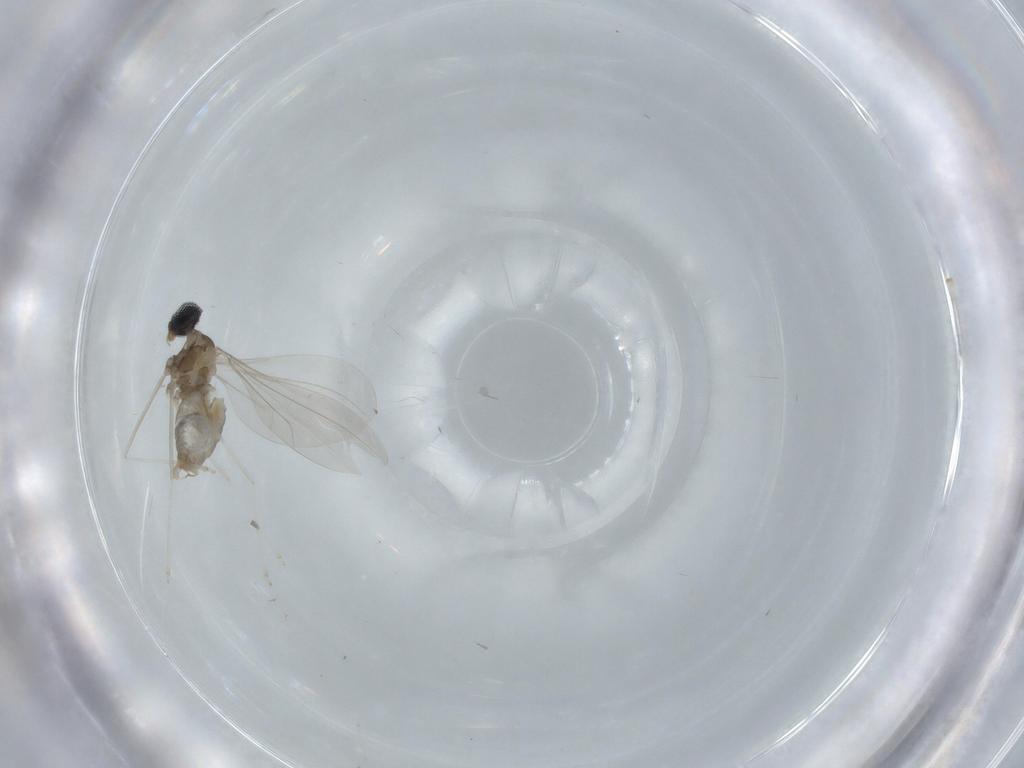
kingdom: Animalia
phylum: Arthropoda
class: Insecta
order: Diptera
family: Cecidomyiidae
